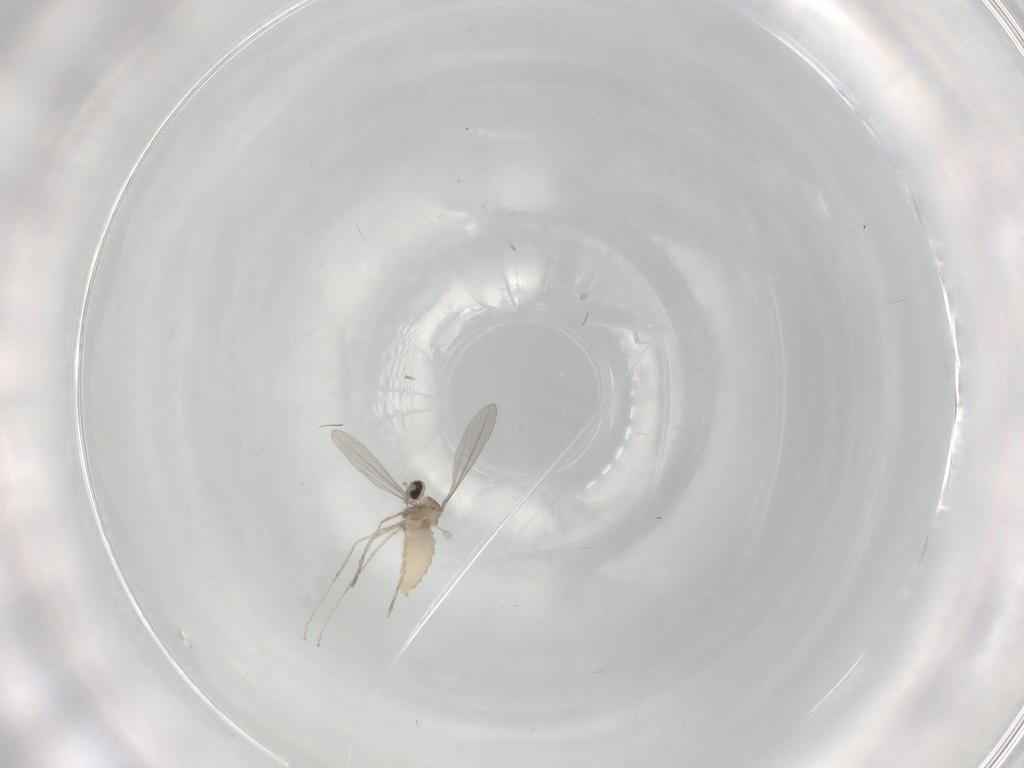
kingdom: Animalia
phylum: Arthropoda
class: Insecta
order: Diptera
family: Cecidomyiidae
